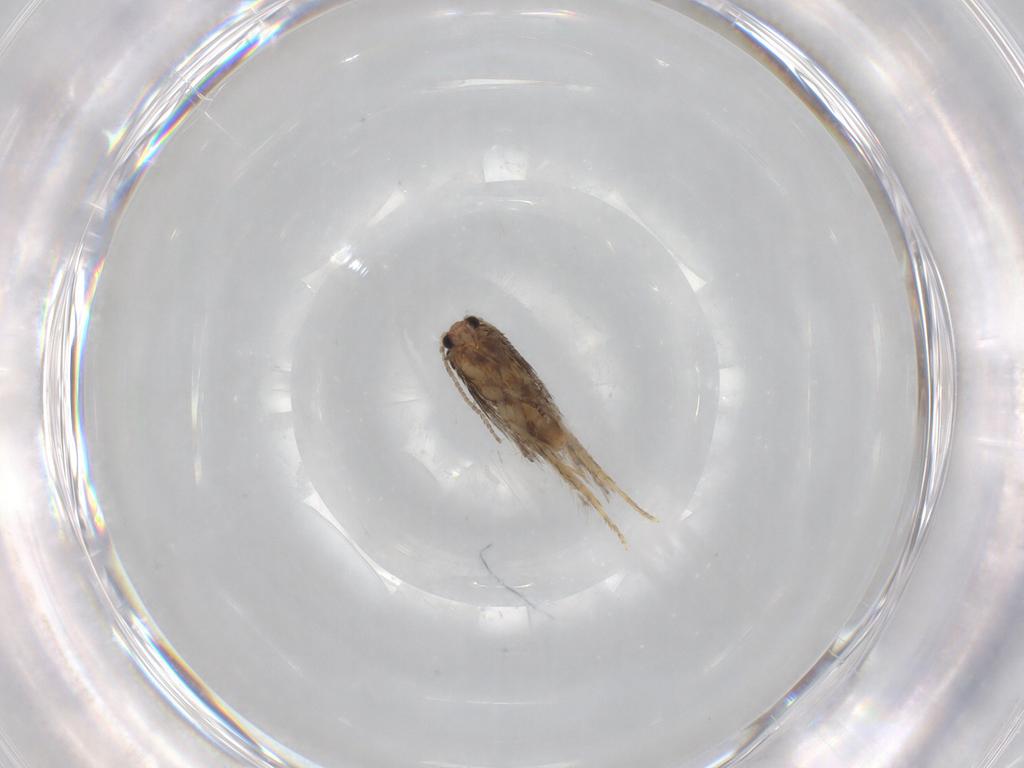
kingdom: Animalia
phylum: Arthropoda
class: Insecta
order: Lepidoptera
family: Nepticulidae
